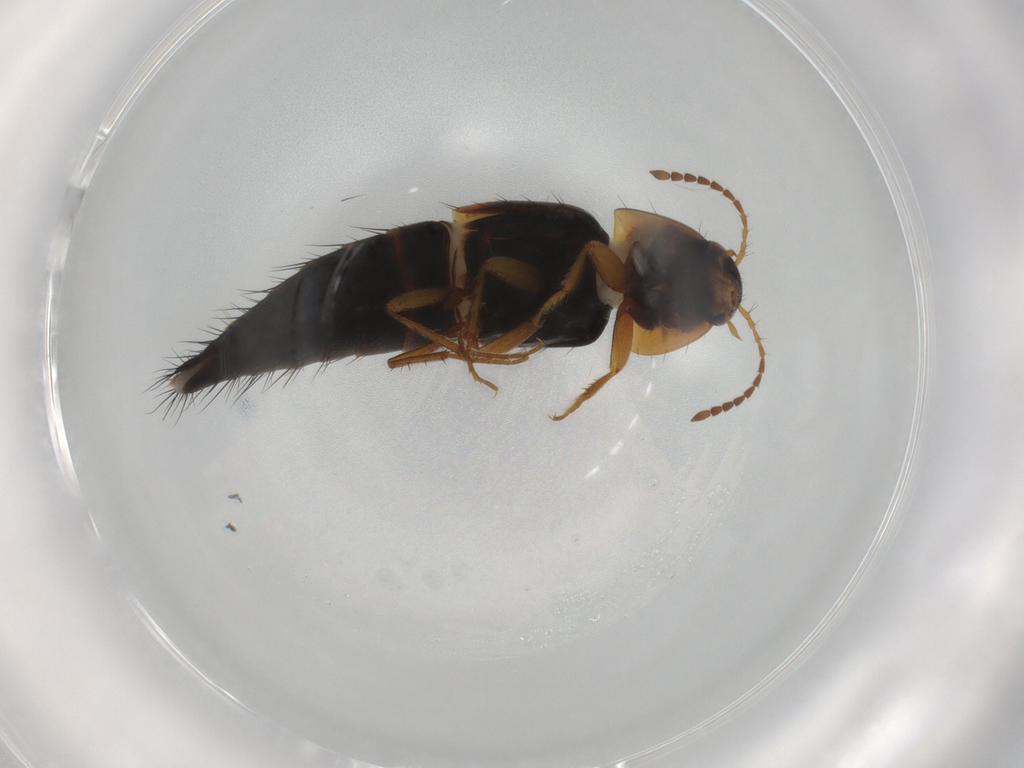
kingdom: Animalia
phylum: Arthropoda
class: Insecta
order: Coleoptera
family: Staphylinidae
